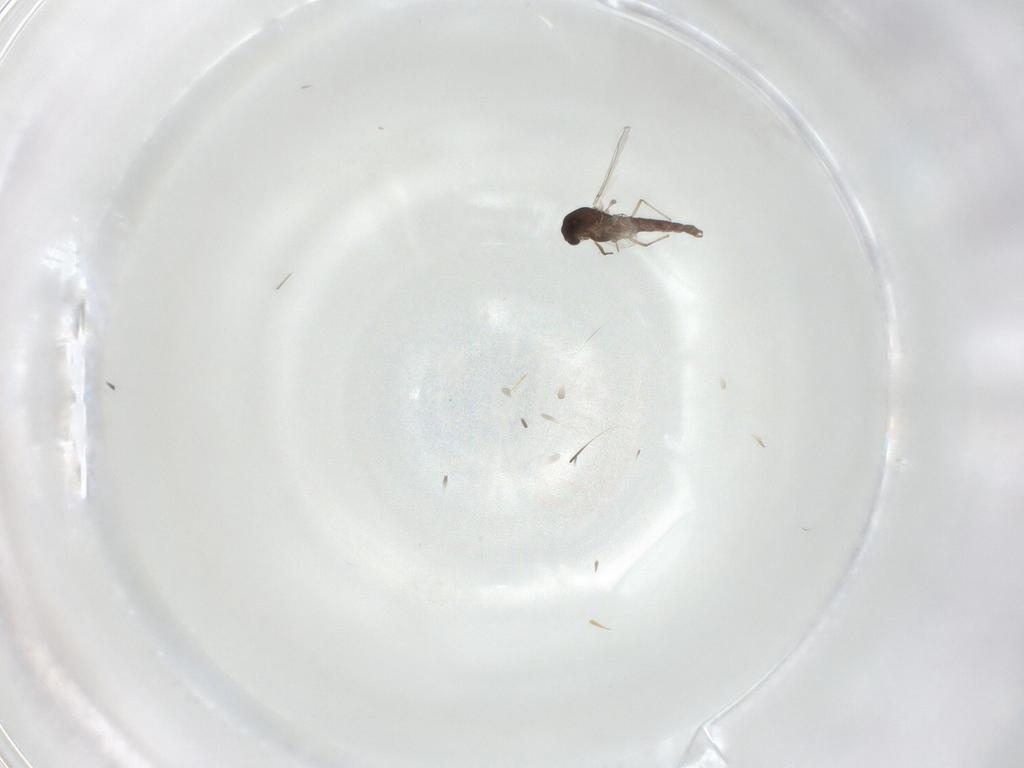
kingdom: Animalia
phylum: Arthropoda
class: Insecta
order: Diptera
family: Chironomidae
